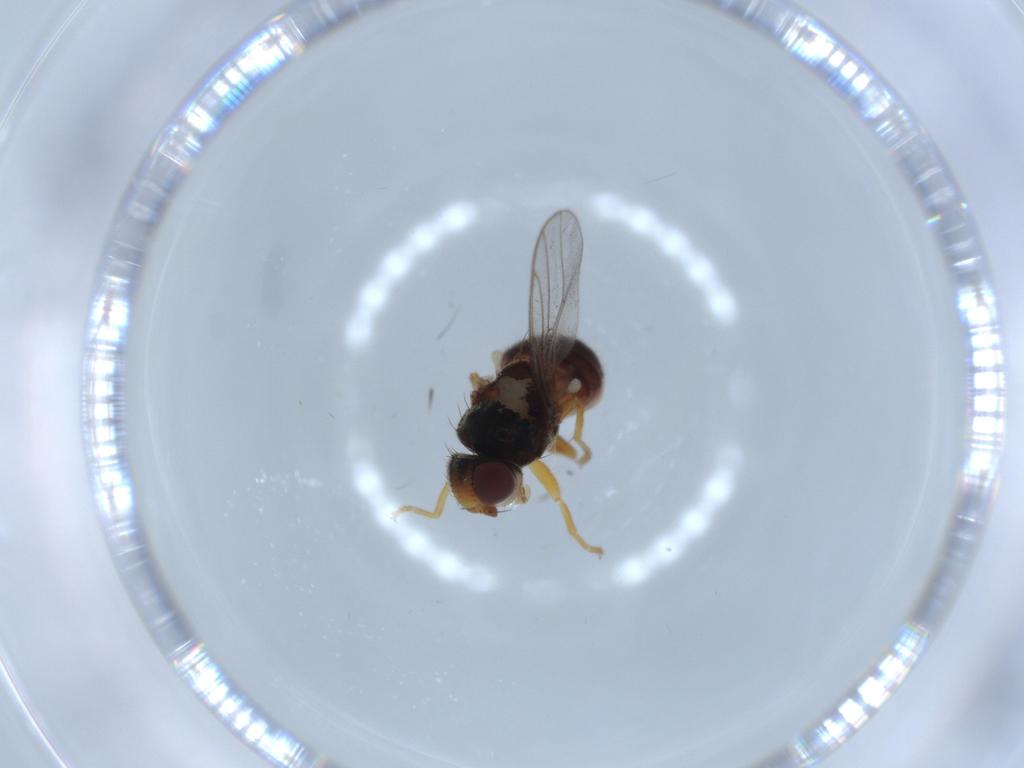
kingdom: Animalia
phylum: Arthropoda
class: Insecta
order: Diptera
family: Chloropidae
